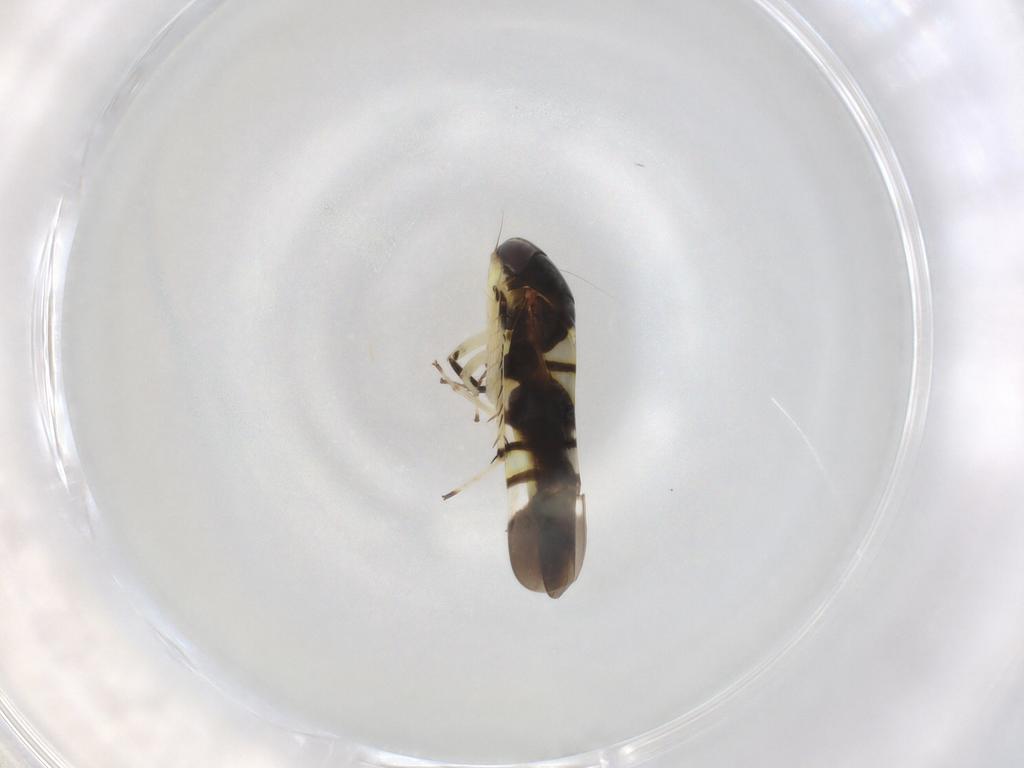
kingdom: Animalia
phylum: Arthropoda
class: Insecta
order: Hemiptera
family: Cicadellidae
